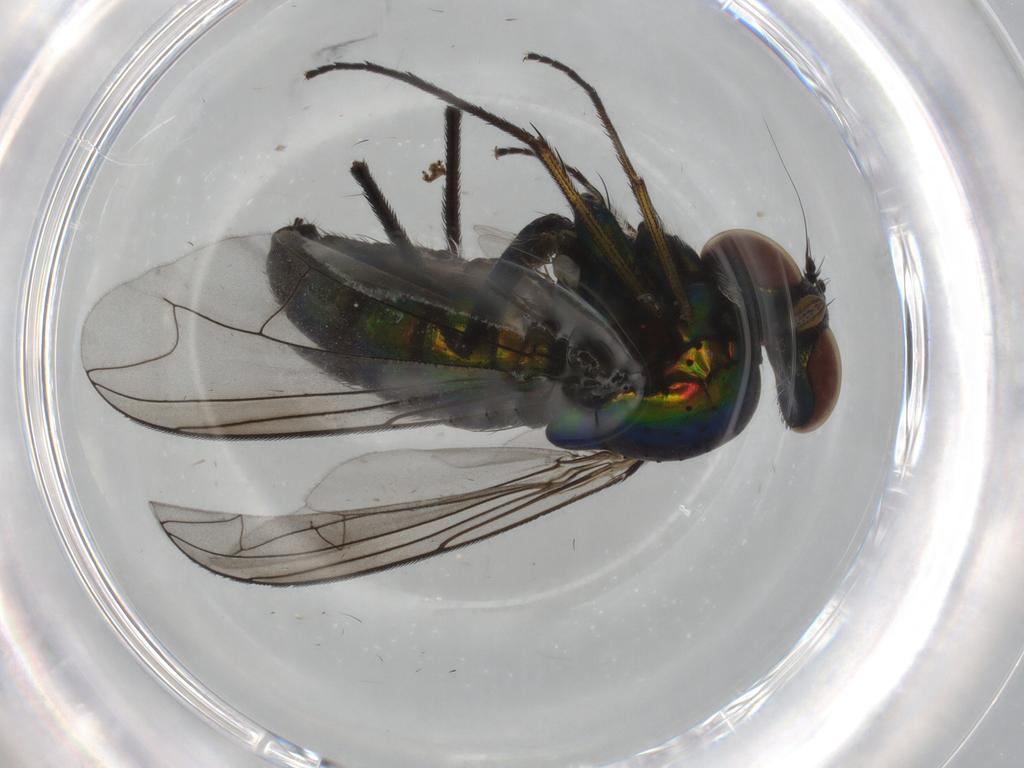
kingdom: Animalia
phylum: Arthropoda
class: Insecta
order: Diptera
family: Dolichopodidae
